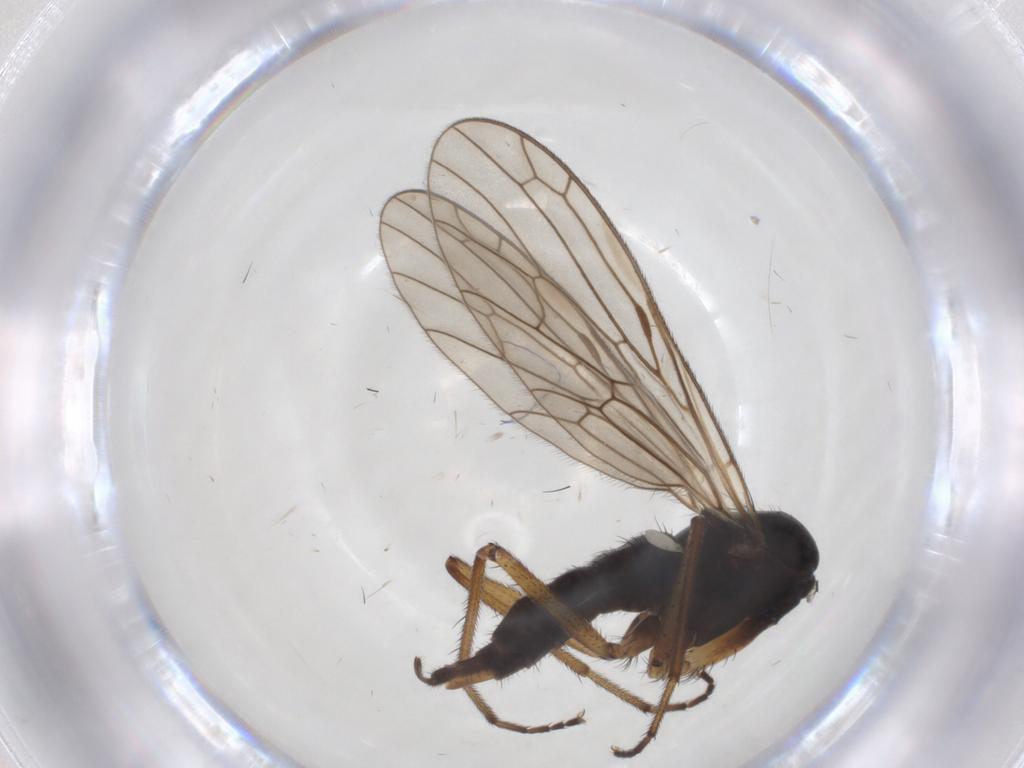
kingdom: Animalia
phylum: Arthropoda
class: Insecta
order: Diptera
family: Empididae
